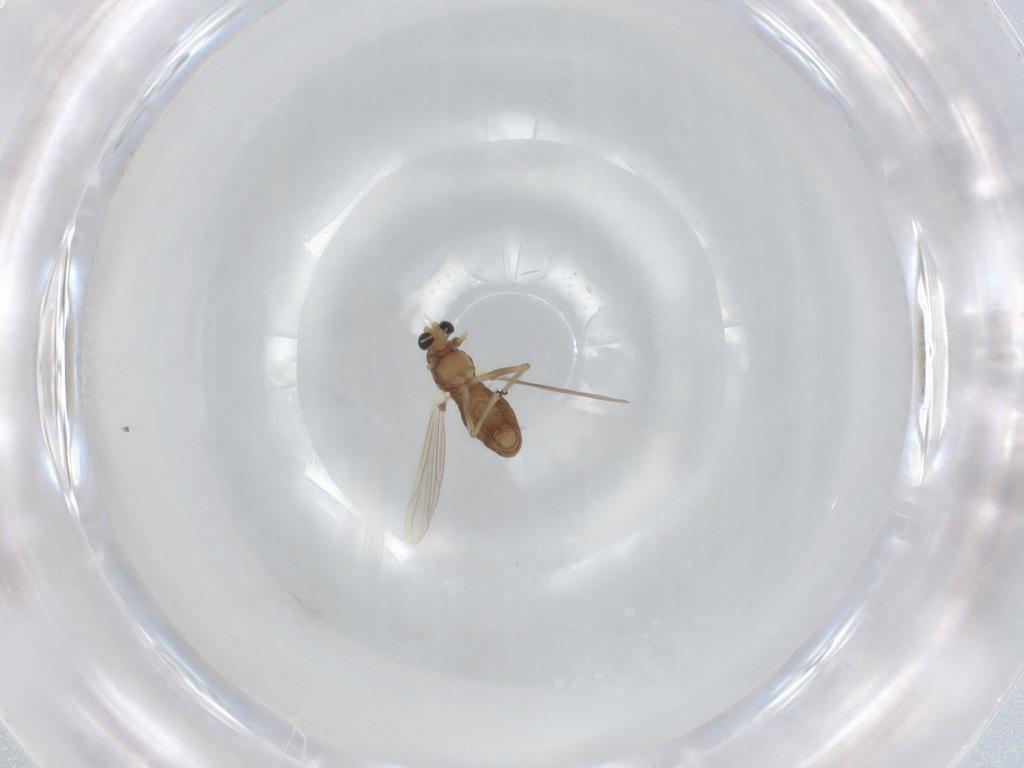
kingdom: Animalia
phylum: Arthropoda
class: Insecta
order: Diptera
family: Chironomidae
